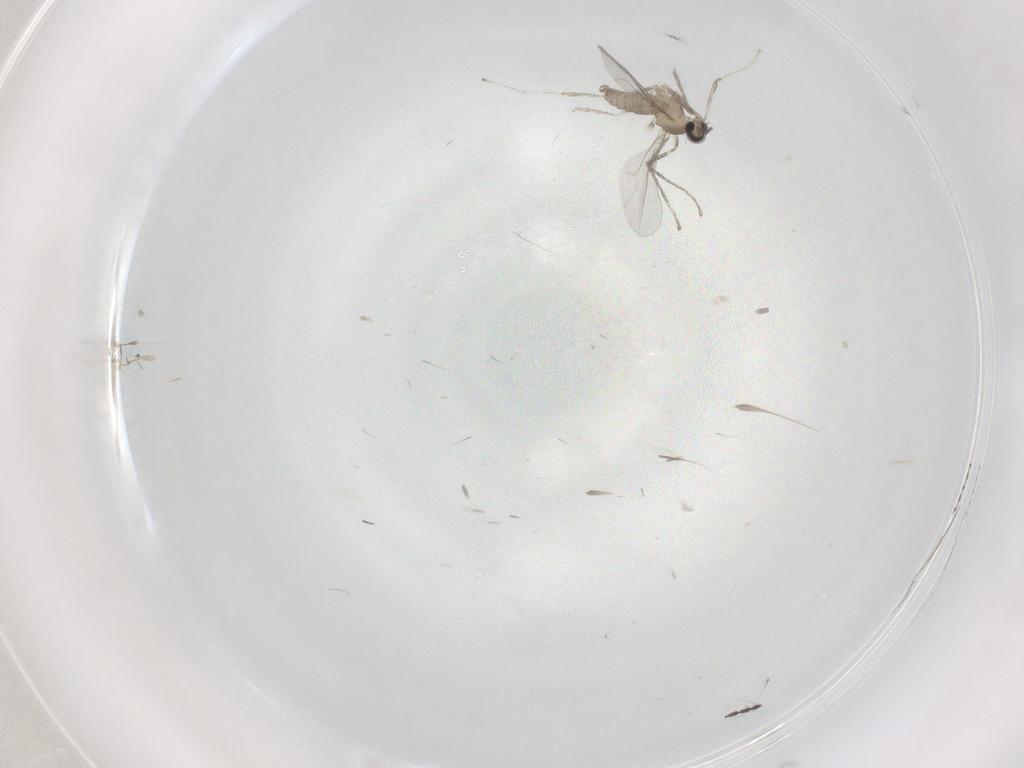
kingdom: Animalia
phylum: Arthropoda
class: Insecta
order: Diptera
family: Cecidomyiidae
